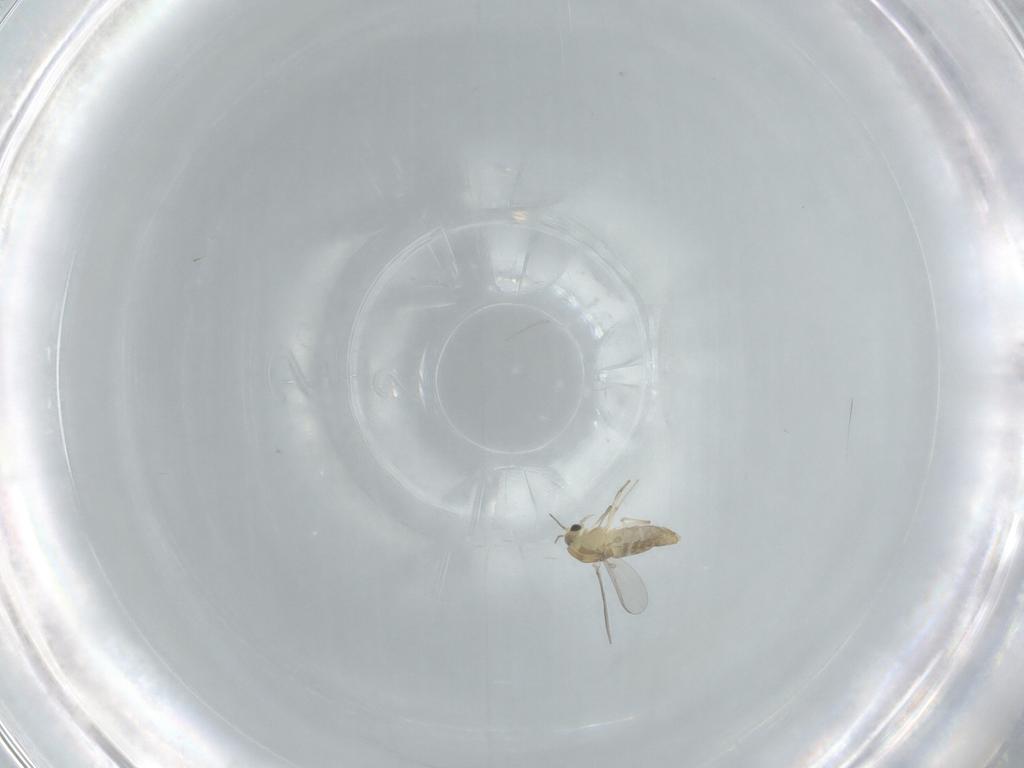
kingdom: Animalia
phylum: Arthropoda
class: Insecta
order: Diptera
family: Chironomidae
